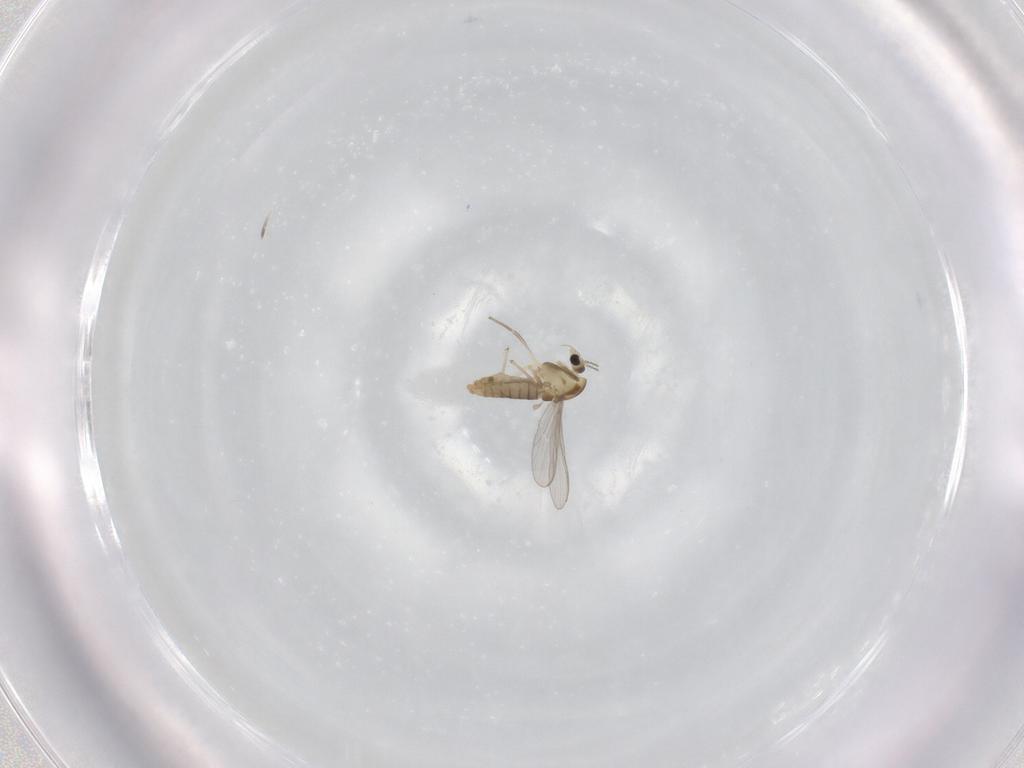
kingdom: Animalia
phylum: Arthropoda
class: Insecta
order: Diptera
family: Chironomidae
